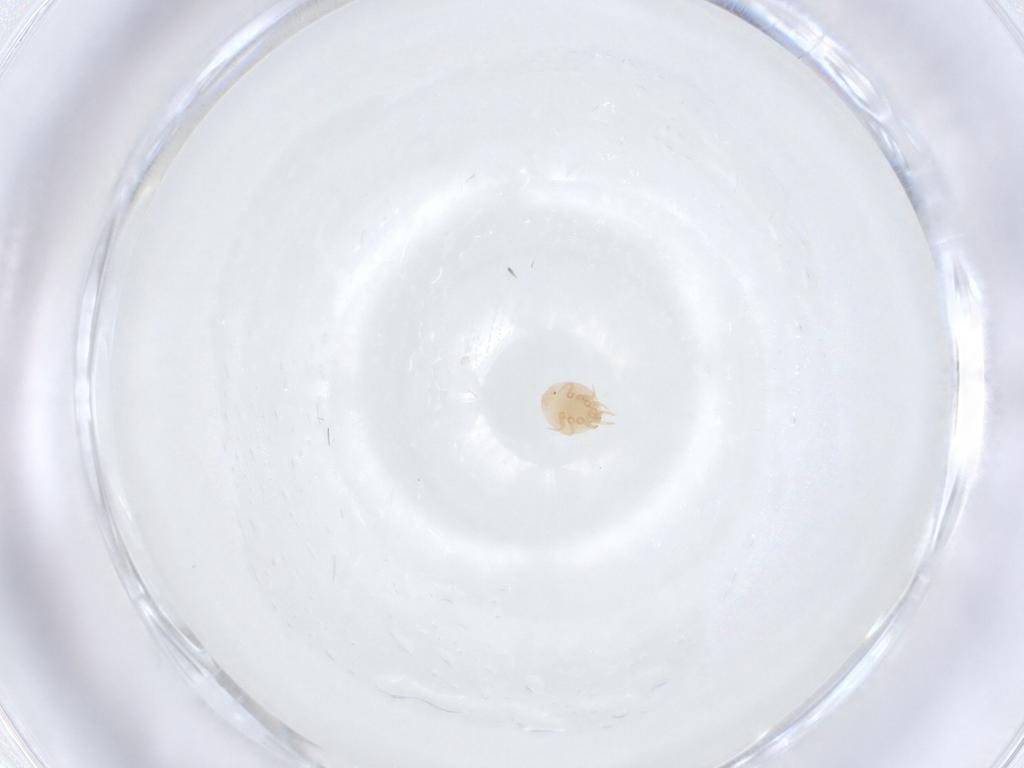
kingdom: Animalia
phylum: Arthropoda
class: Arachnida
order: Mesostigmata
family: Trematuridae
